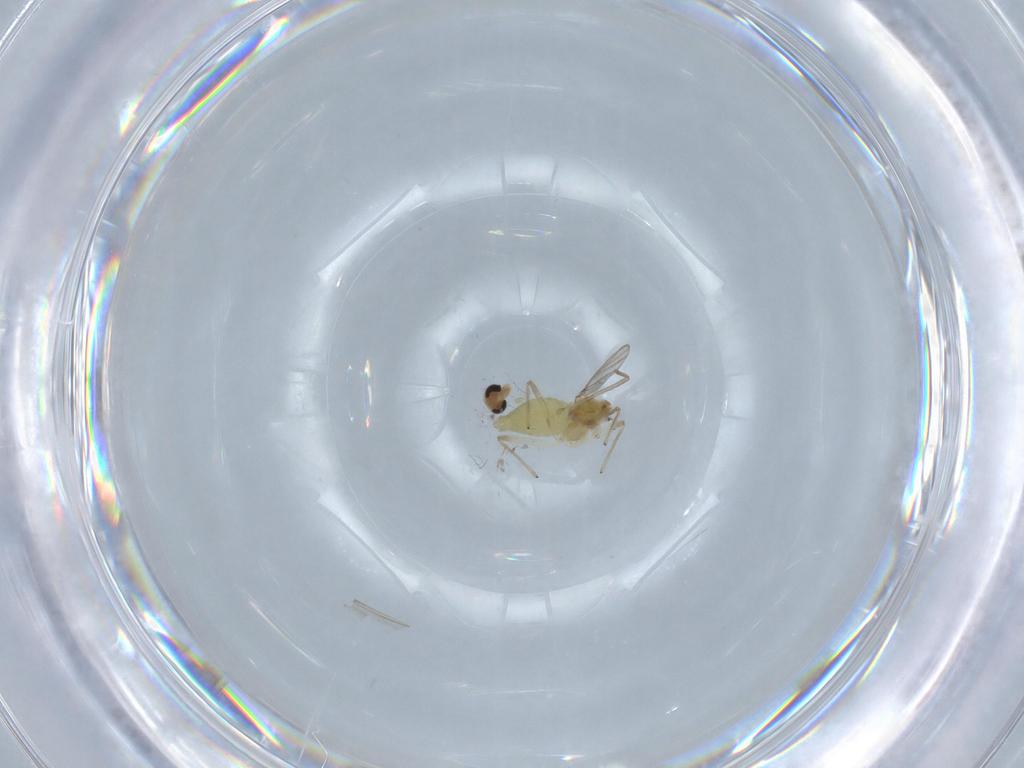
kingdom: Animalia
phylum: Arthropoda
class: Insecta
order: Diptera
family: Chironomidae
